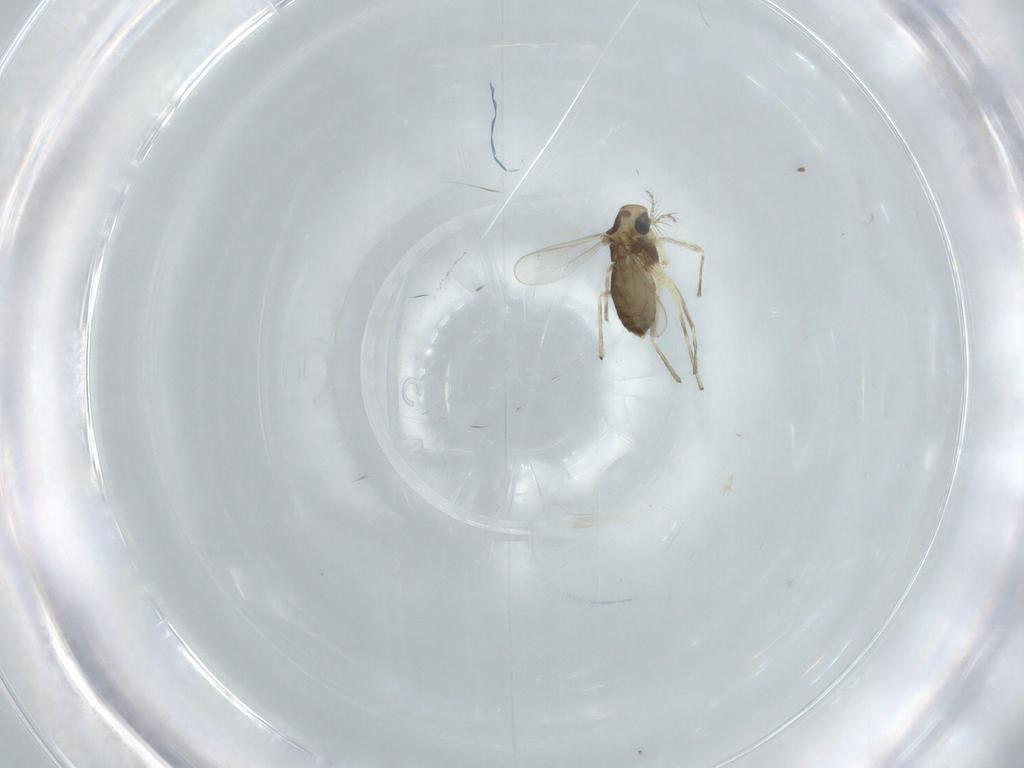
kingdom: Animalia
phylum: Arthropoda
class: Insecta
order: Diptera
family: Chironomidae
